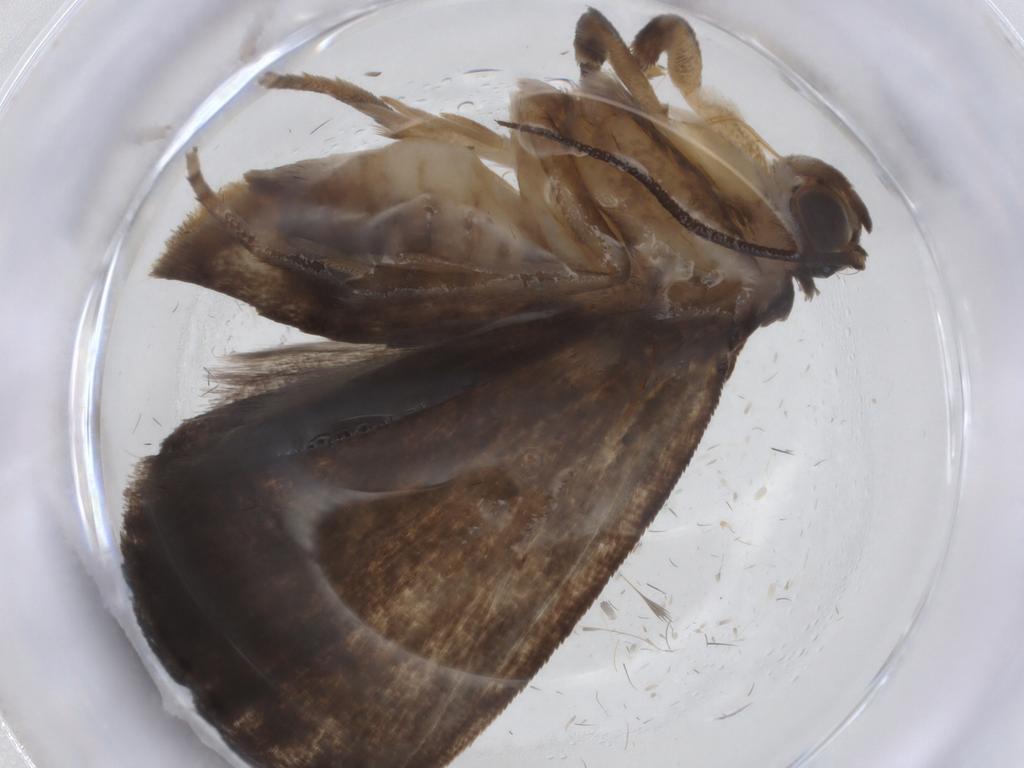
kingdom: Animalia
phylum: Arthropoda
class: Insecta
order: Lepidoptera
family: Immidae
